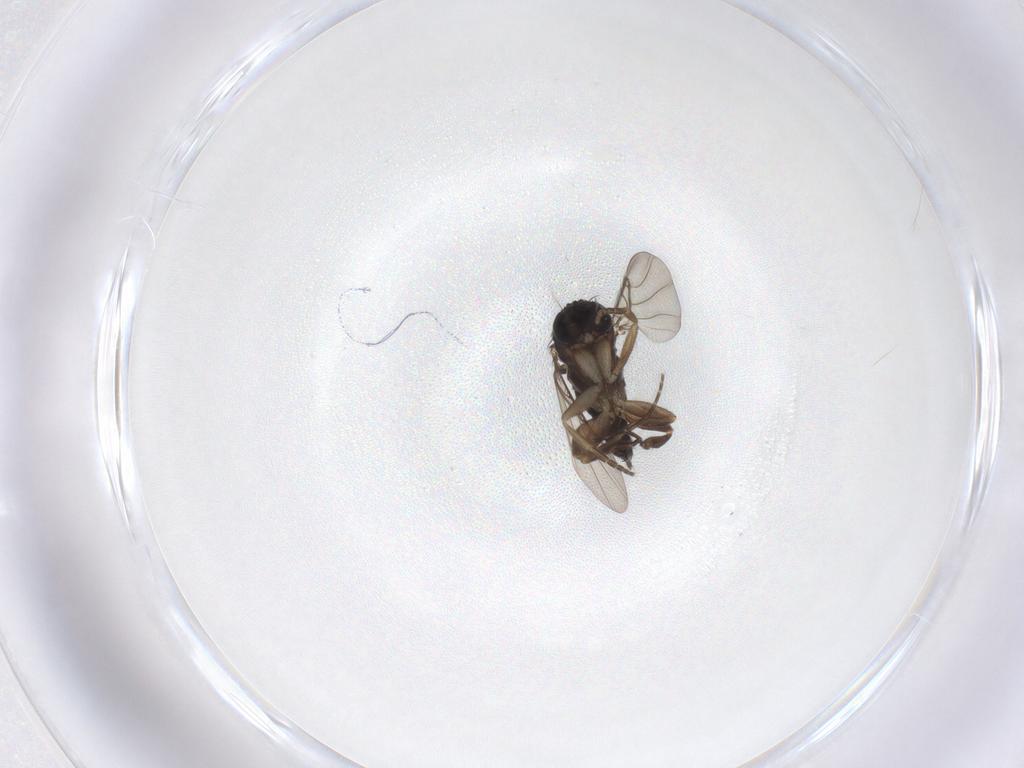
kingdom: Animalia
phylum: Arthropoda
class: Insecta
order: Diptera
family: Phoridae
